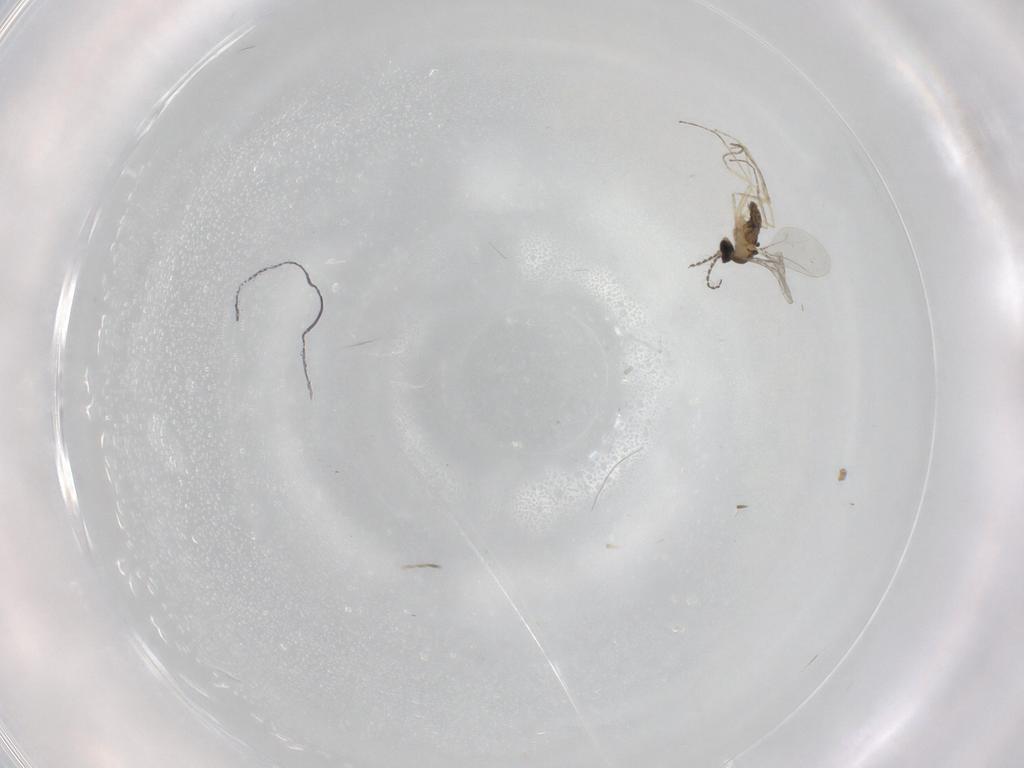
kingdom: Animalia
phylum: Arthropoda
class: Insecta
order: Diptera
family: Cecidomyiidae
